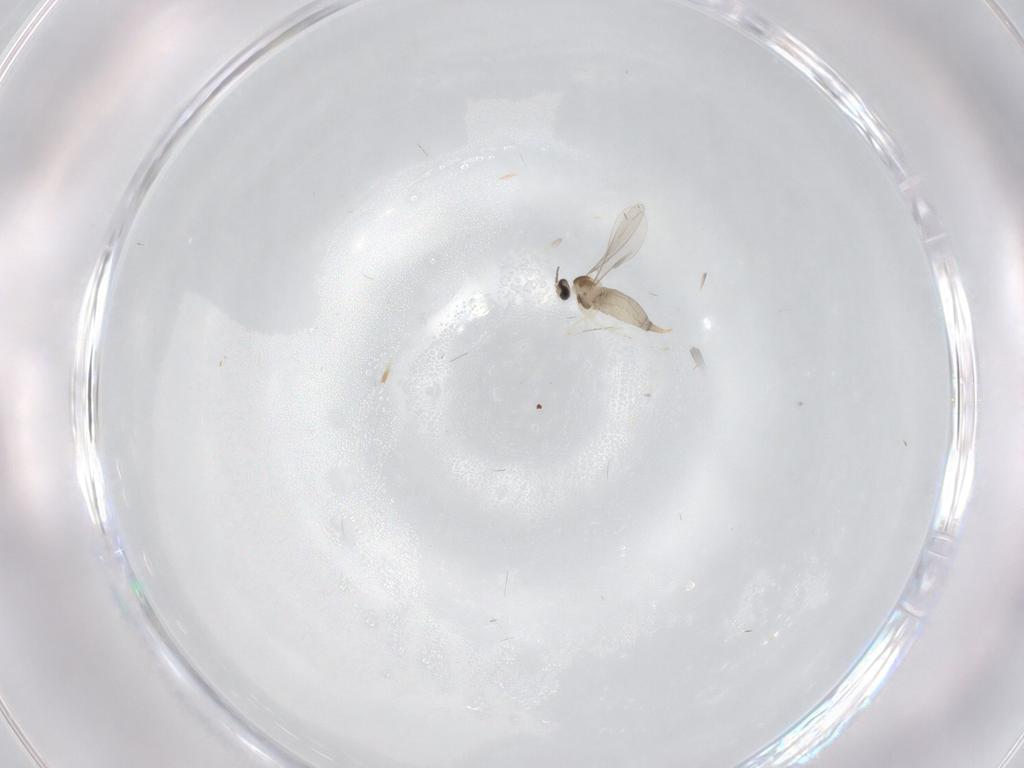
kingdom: Animalia
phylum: Arthropoda
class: Insecta
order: Diptera
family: Cecidomyiidae
